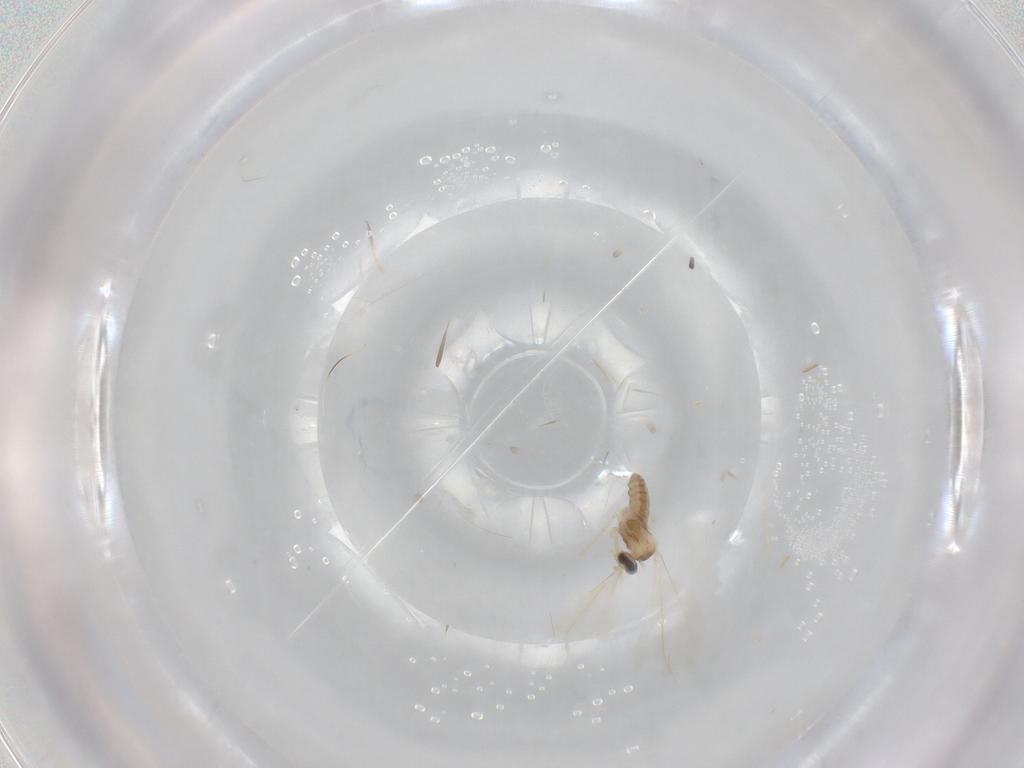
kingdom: Animalia
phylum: Arthropoda
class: Insecta
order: Diptera
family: Cecidomyiidae
